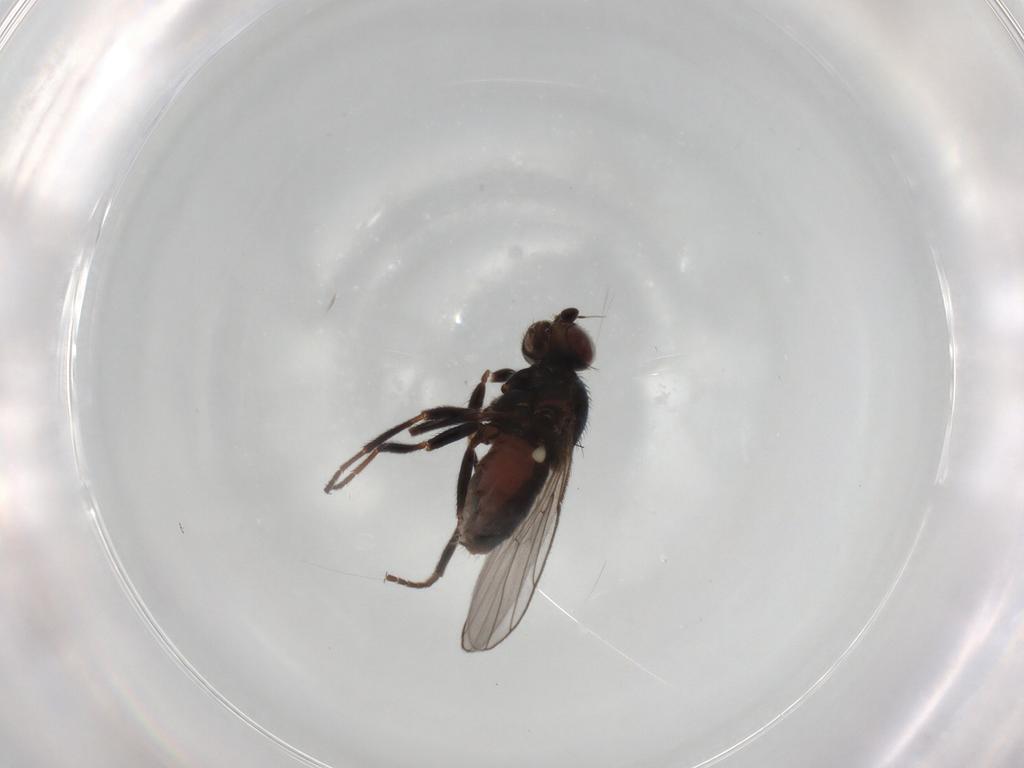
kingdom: Animalia
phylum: Arthropoda
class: Insecta
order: Diptera
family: Chloropidae
